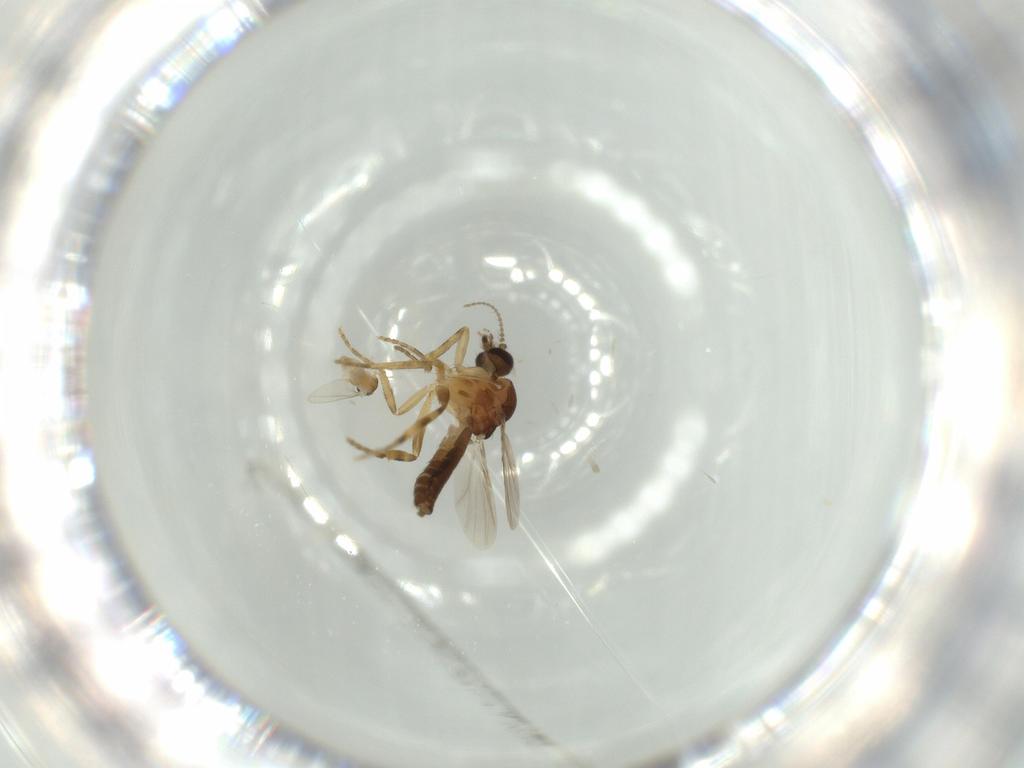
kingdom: Animalia
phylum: Arthropoda
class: Insecta
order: Diptera
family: Cecidomyiidae
